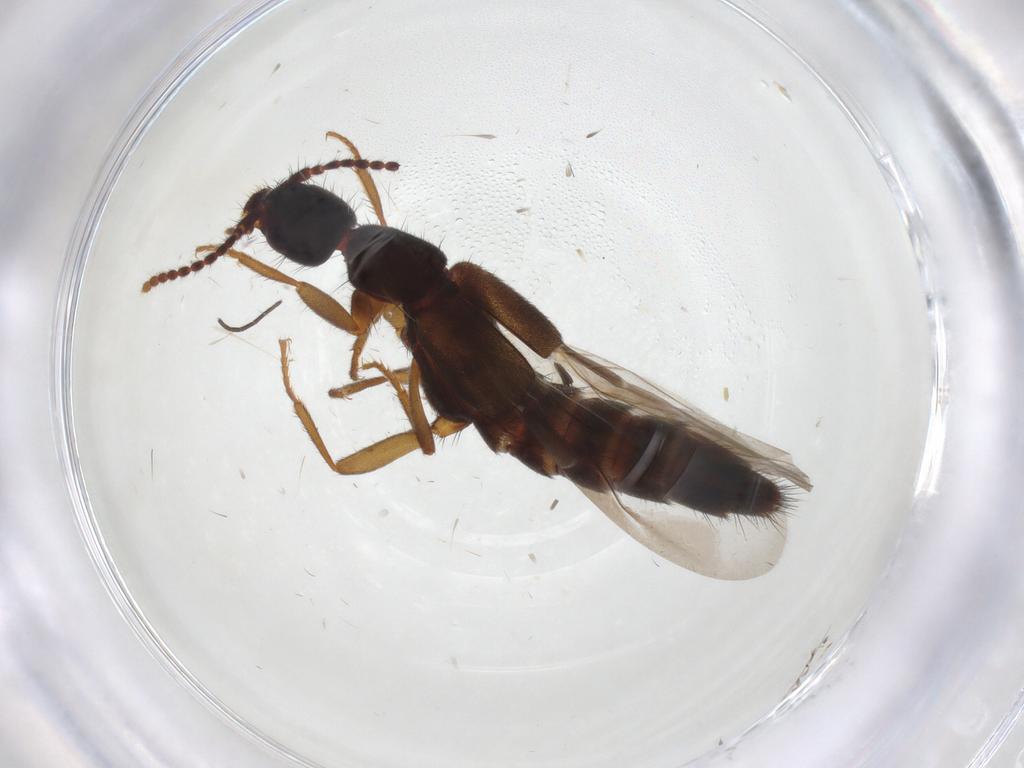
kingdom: Animalia
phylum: Arthropoda
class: Insecta
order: Coleoptera
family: Staphylinidae
